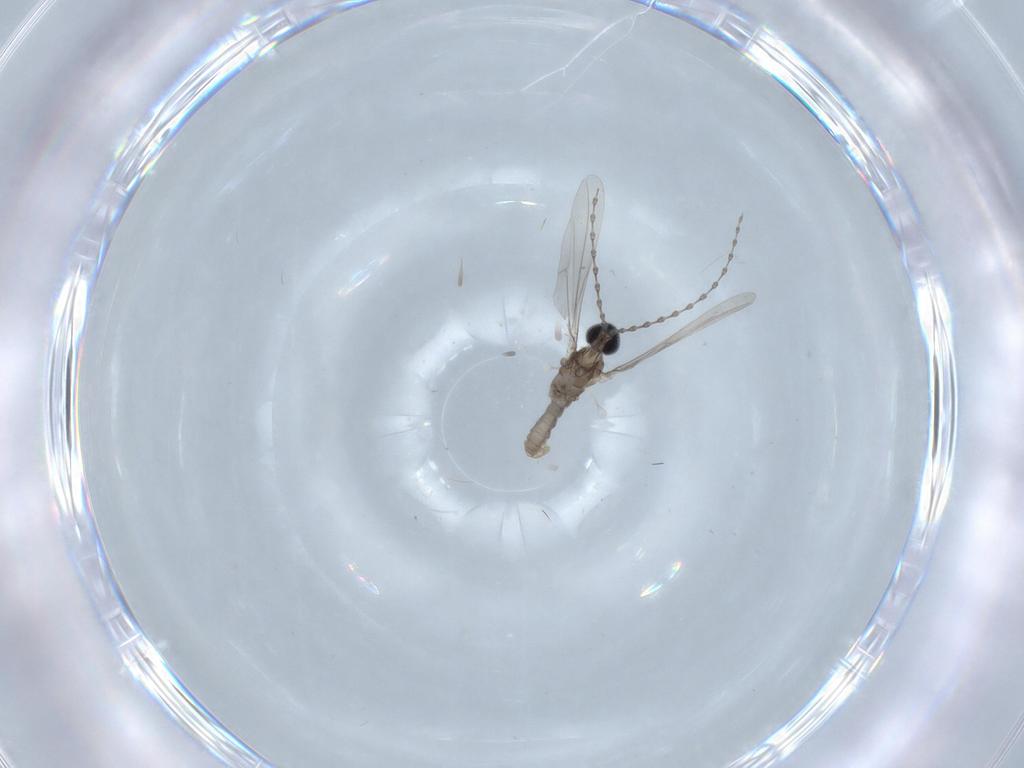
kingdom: Animalia
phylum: Arthropoda
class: Insecta
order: Diptera
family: Cecidomyiidae
